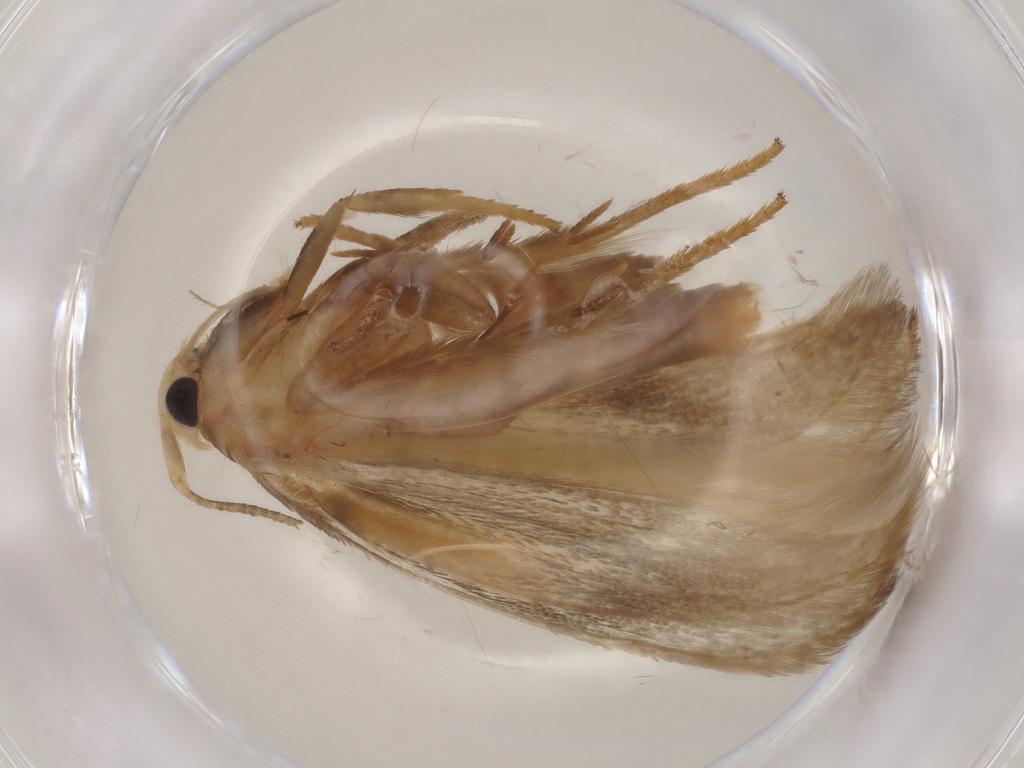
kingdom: Animalia
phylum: Arthropoda
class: Insecta
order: Lepidoptera
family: Geometridae
